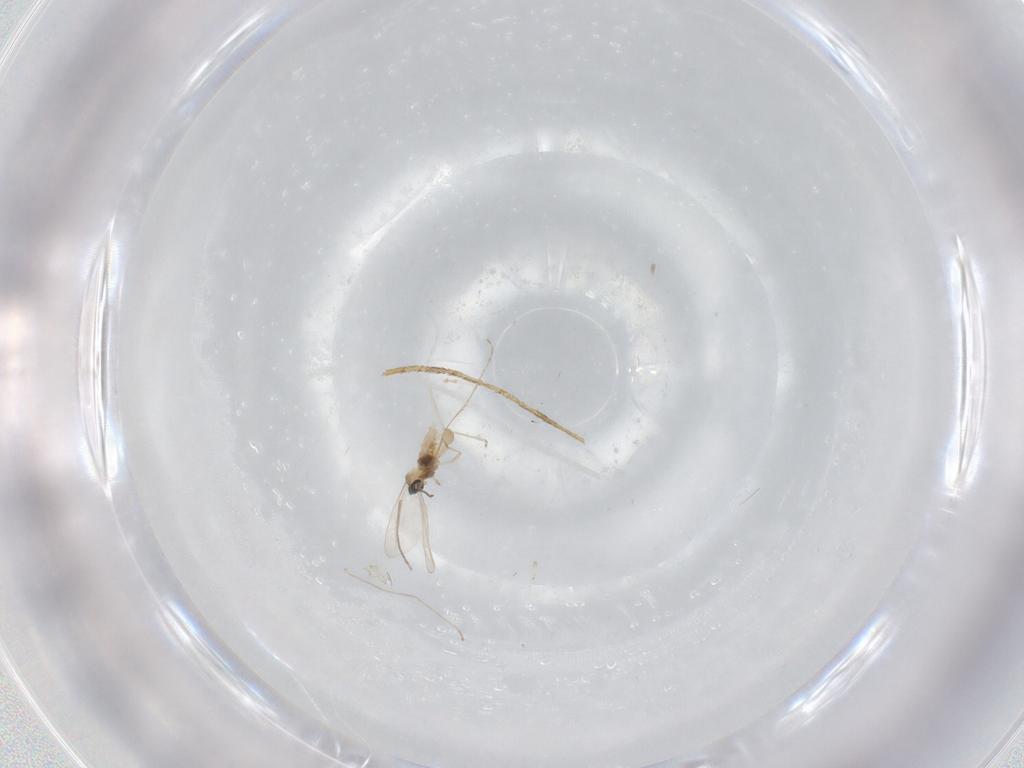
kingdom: Animalia
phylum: Arthropoda
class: Insecta
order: Diptera
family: Culicidae
